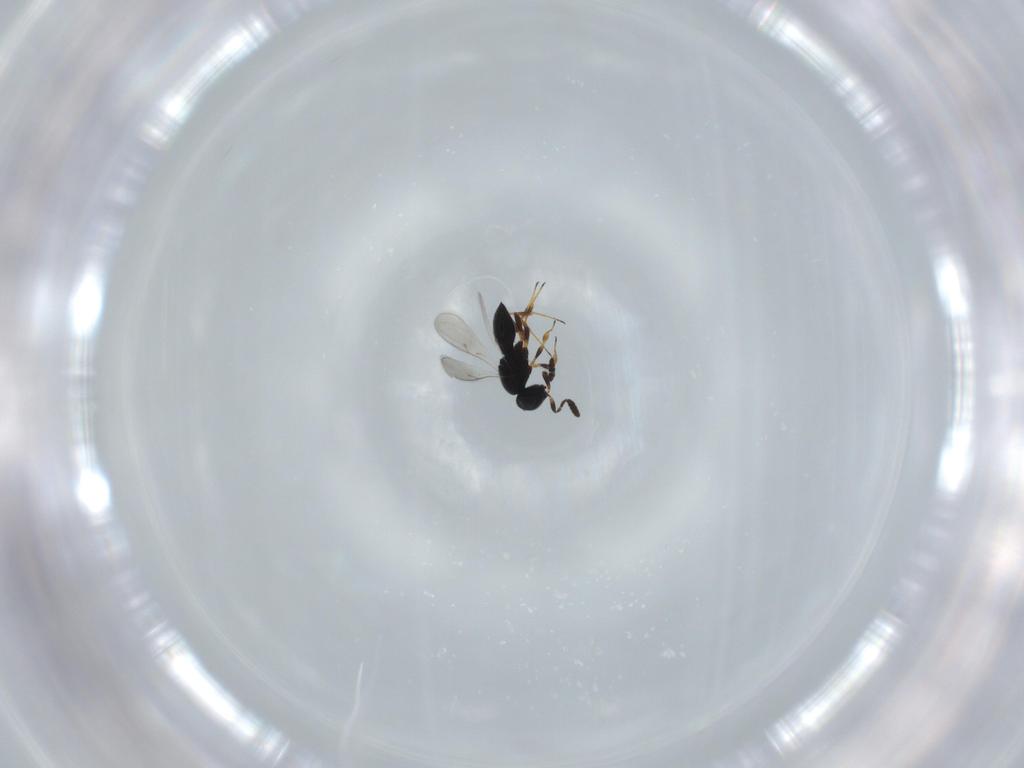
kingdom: Animalia
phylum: Arthropoda
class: Insecta
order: Hymenoptera
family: Scelionidae
